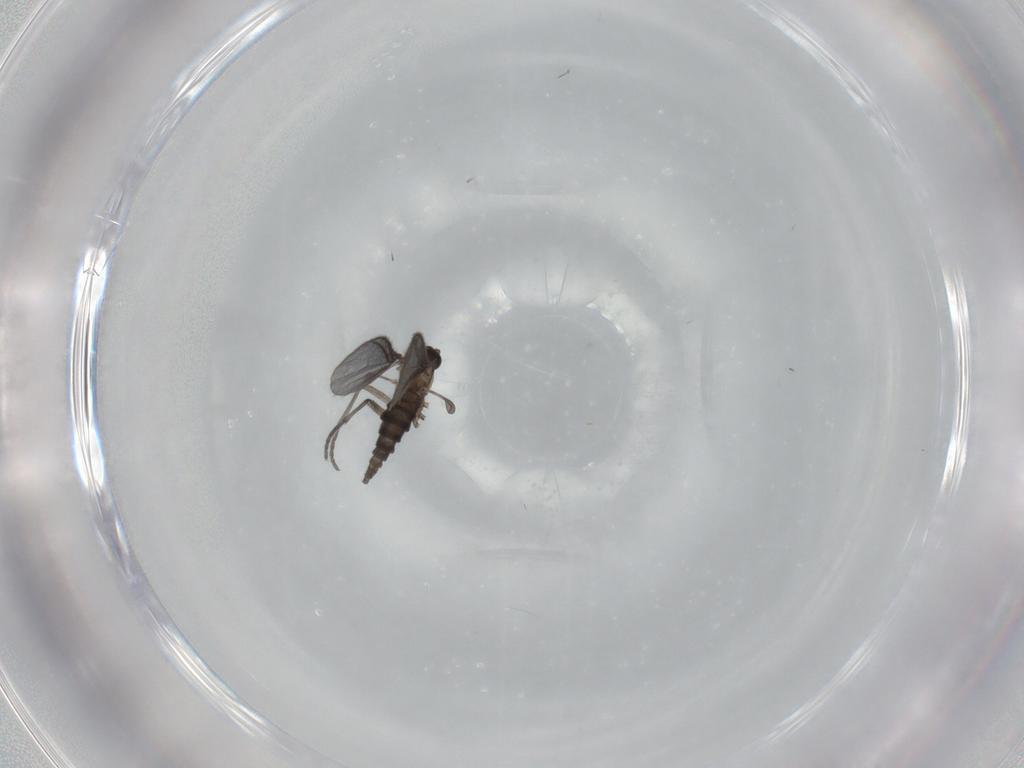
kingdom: Animalia
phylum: Arthropoda
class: Insecta
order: Diptera
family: Sciaridae
